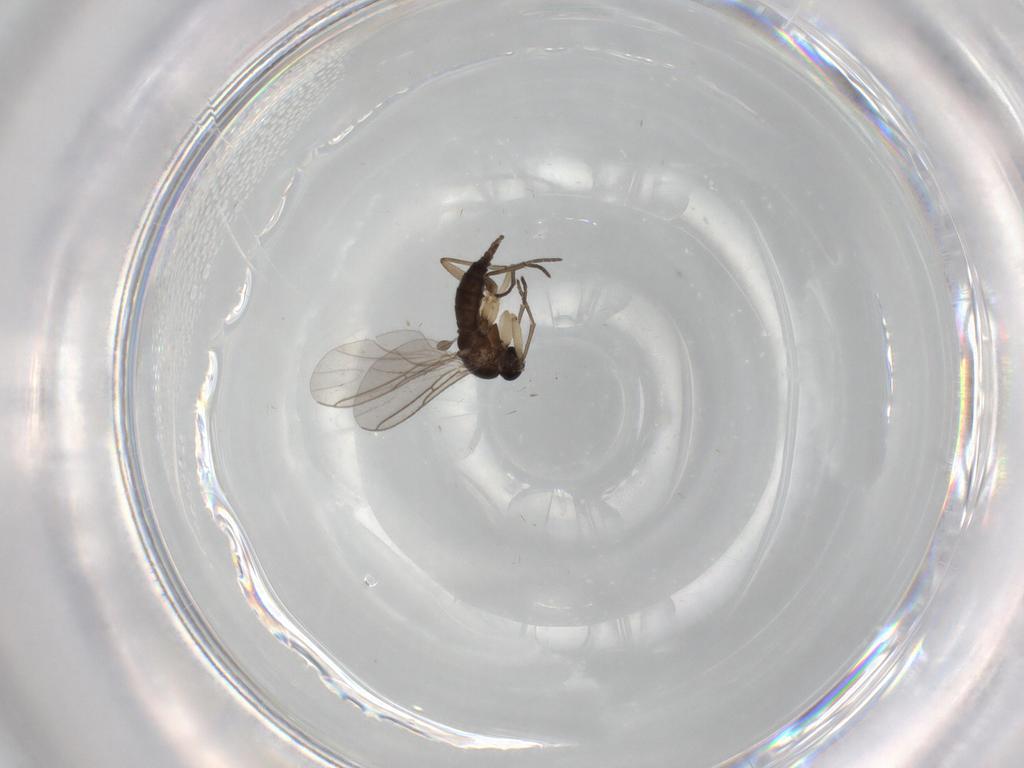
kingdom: Animalia
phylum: Arthropoda
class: Insecta
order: Diptera
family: Sciaridae
